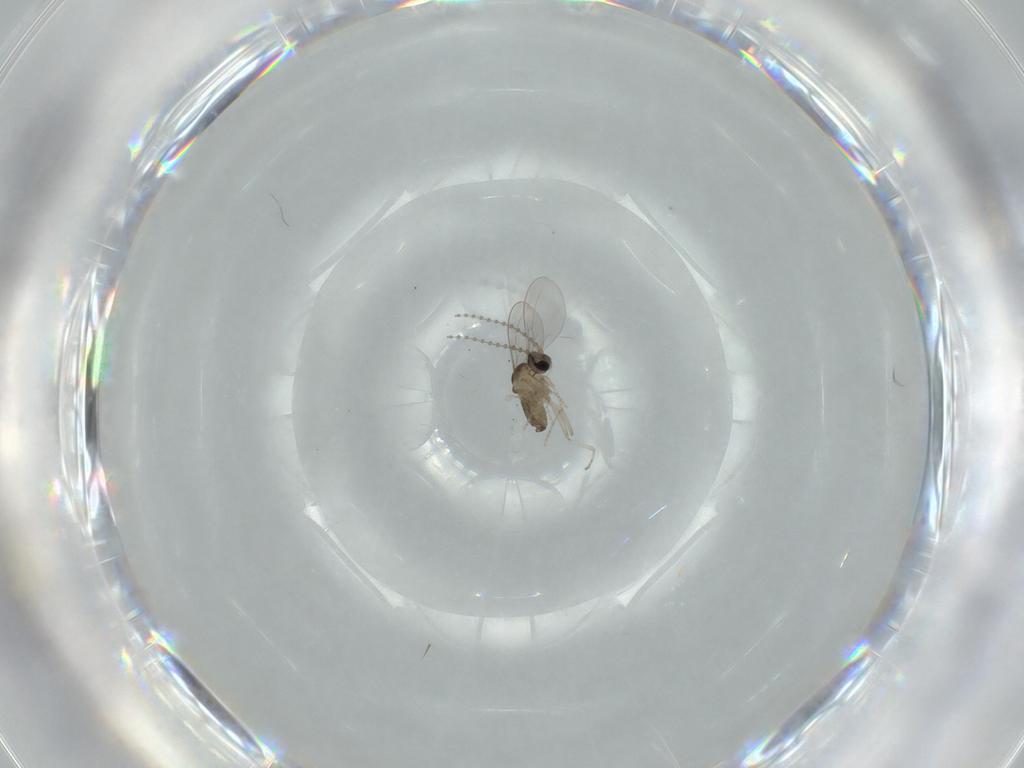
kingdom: Animalia
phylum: Arthropoda
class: Insecta
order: Diptera
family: Cecidomyiidae
